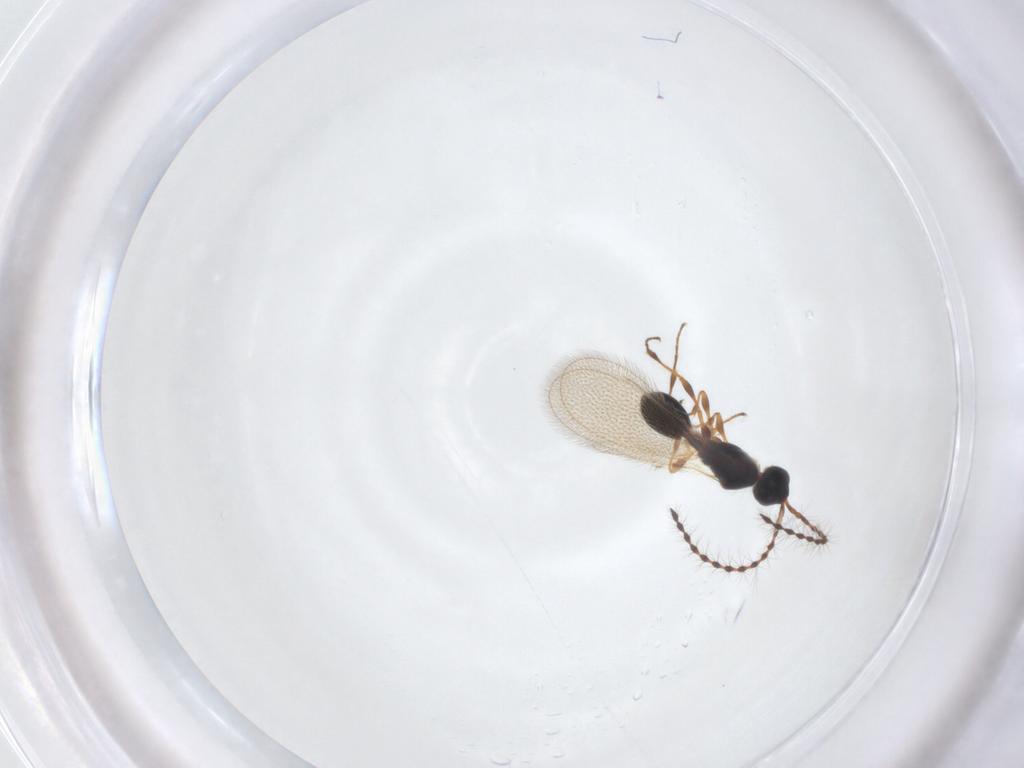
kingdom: Animalia
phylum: Arthropoda
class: Insecta
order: Hymenoptera
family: Diapriidae
